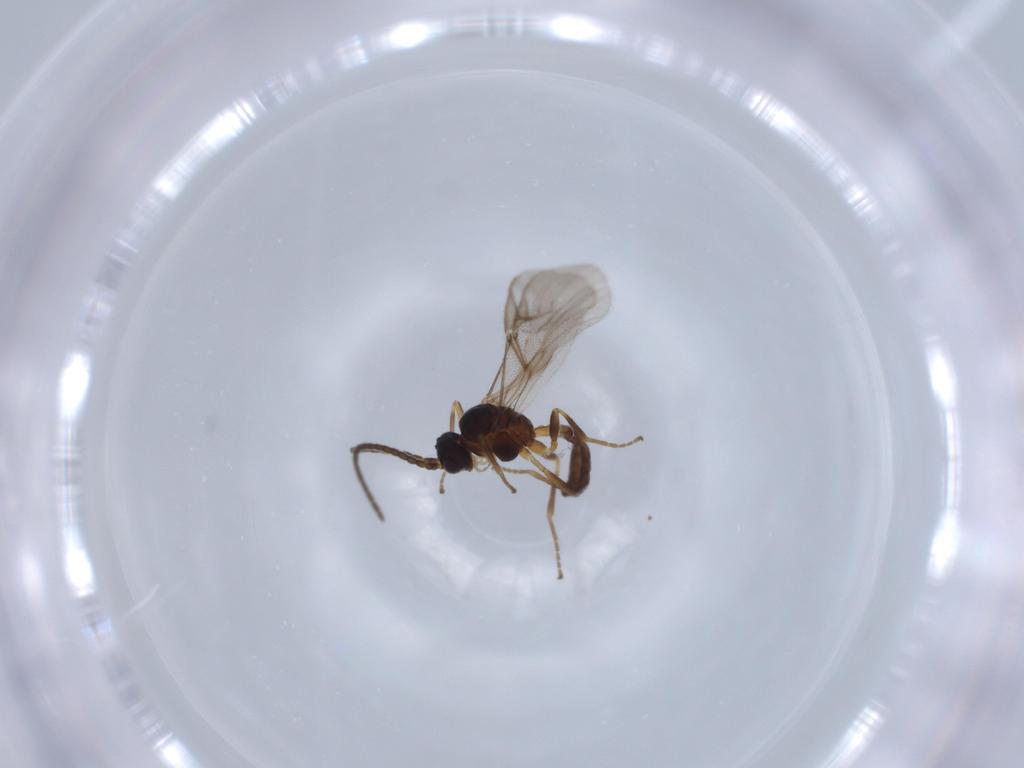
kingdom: Animalia
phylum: Arthropoda
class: Insecta
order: Hymenoptera
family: Braconidae
